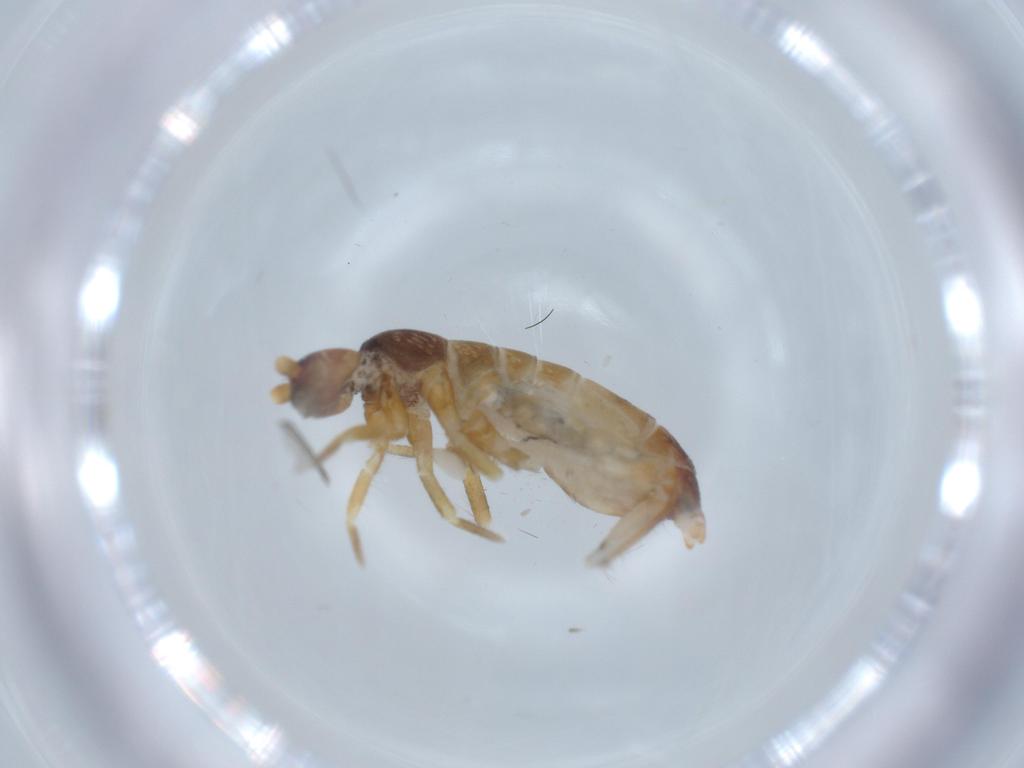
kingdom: Animalia
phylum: Arthropoda
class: Collembola
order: Entomobryomorpha
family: Tomoceridae
